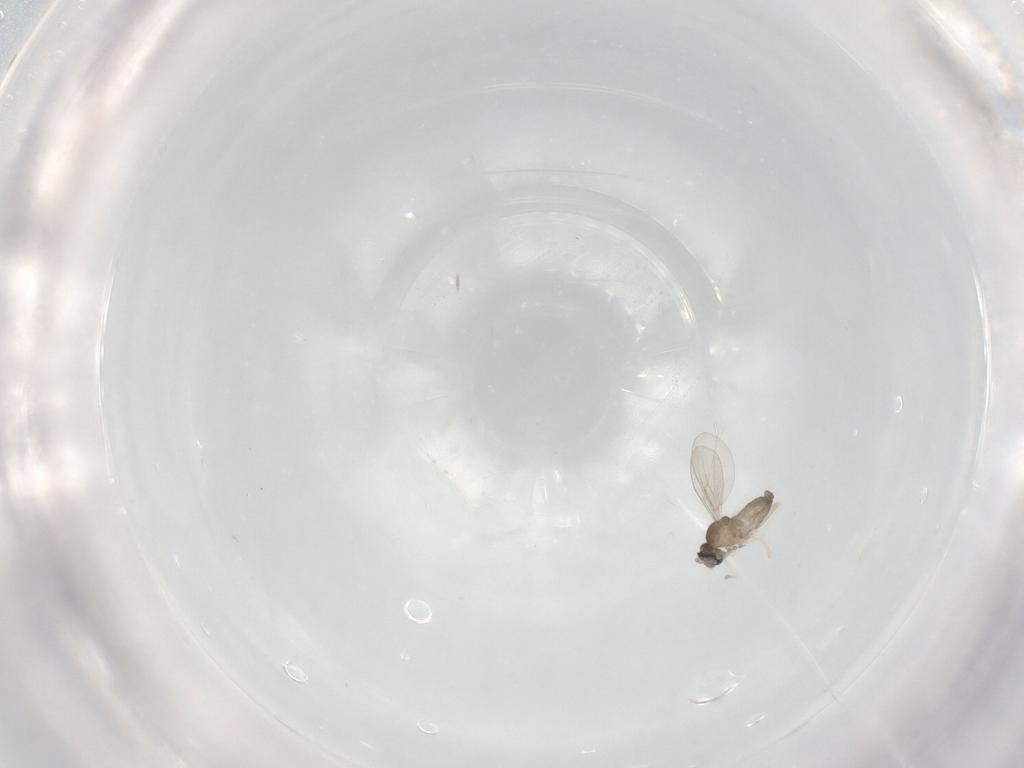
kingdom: Animalia
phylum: Arthropoda
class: Insecta
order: Diptera
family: Cecidomyiidae
